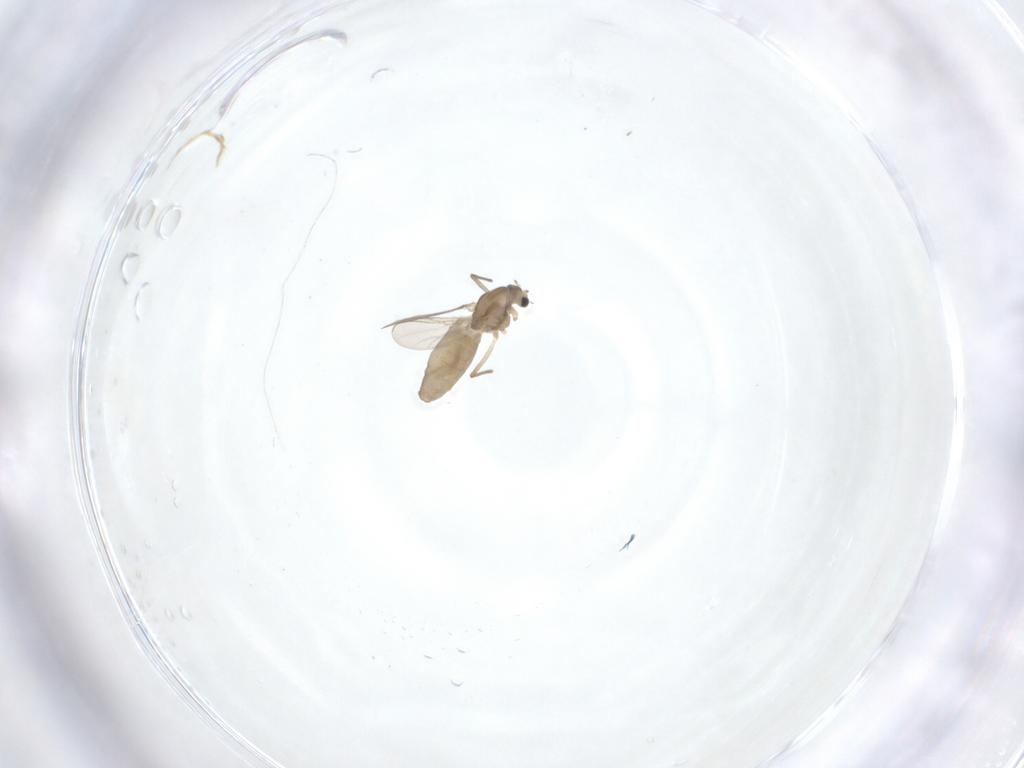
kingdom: Animalia
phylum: Arthropoda
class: Insecta
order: Diptera
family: Chironomidae
